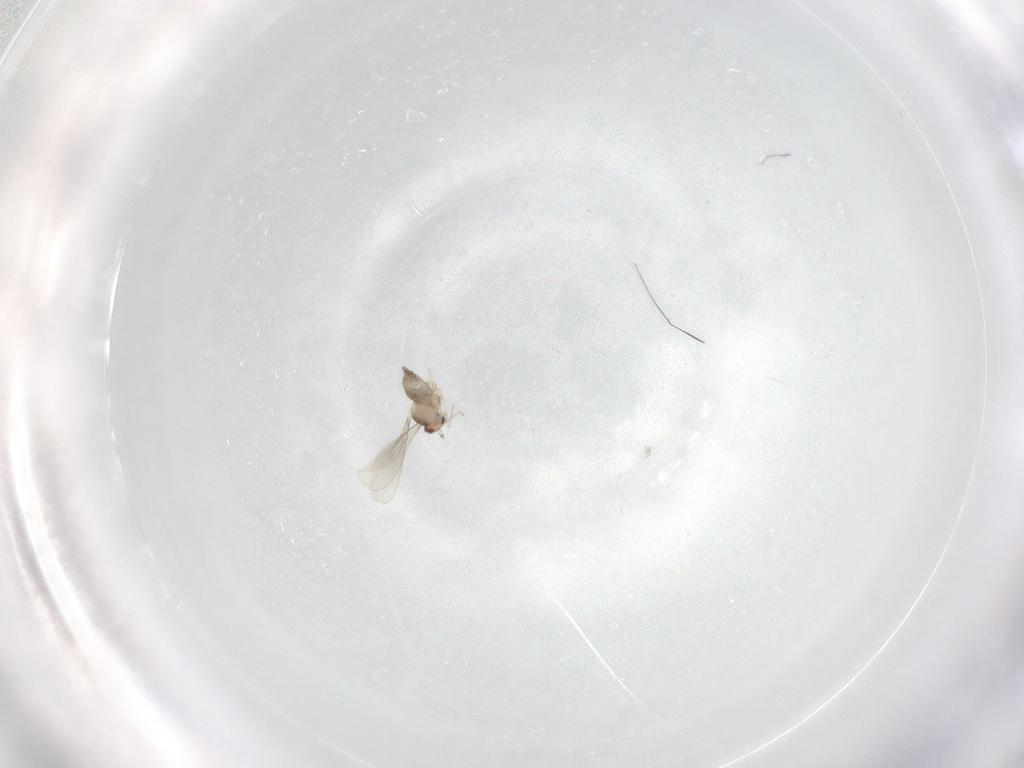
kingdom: Animalia
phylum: Arthropoda
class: Insecta
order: Diptera
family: Cecidomyiidae
